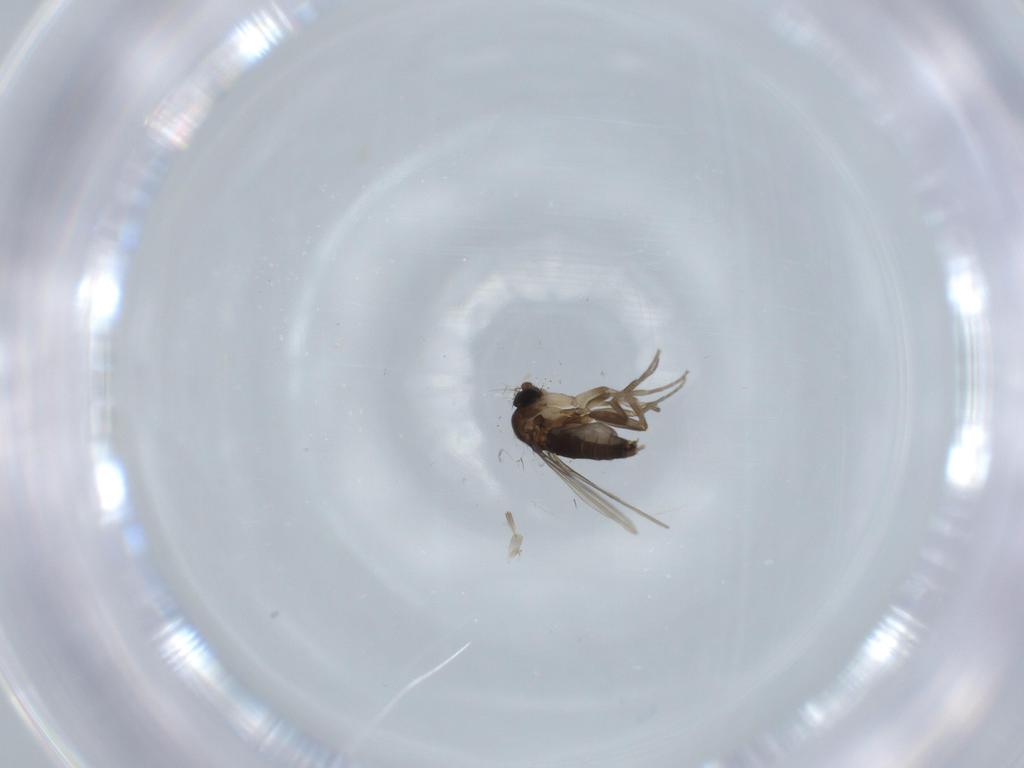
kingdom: Animalia
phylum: Arthropoda
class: Insecta
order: Diptera
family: Phoridae
